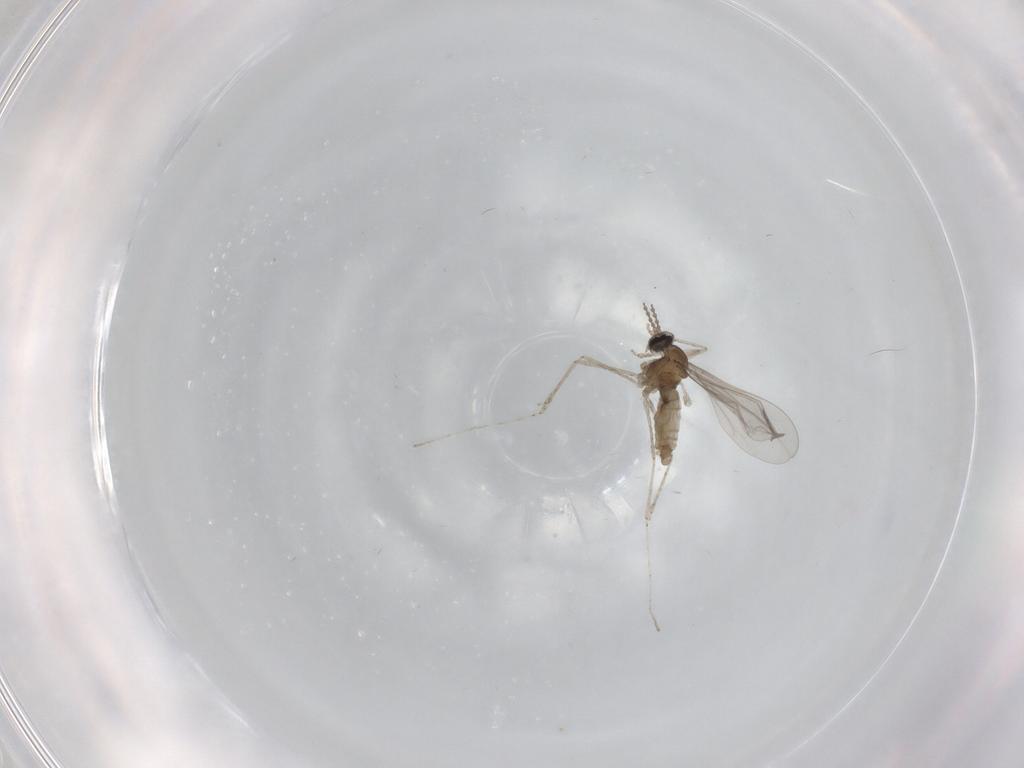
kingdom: Animalia
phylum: Arthropoda
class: Insecta
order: Diptera
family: Cecidomyiidae
